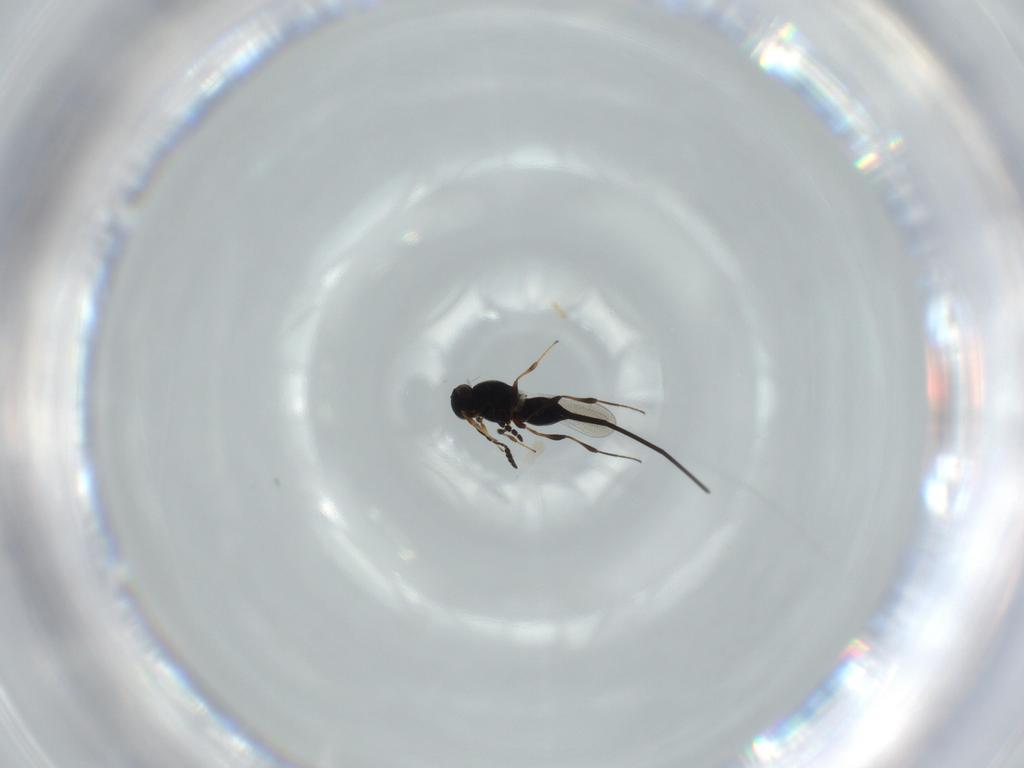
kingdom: Animalia
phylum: Arthropoda
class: Insecta
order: Hymenoptera
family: Platygastridae
